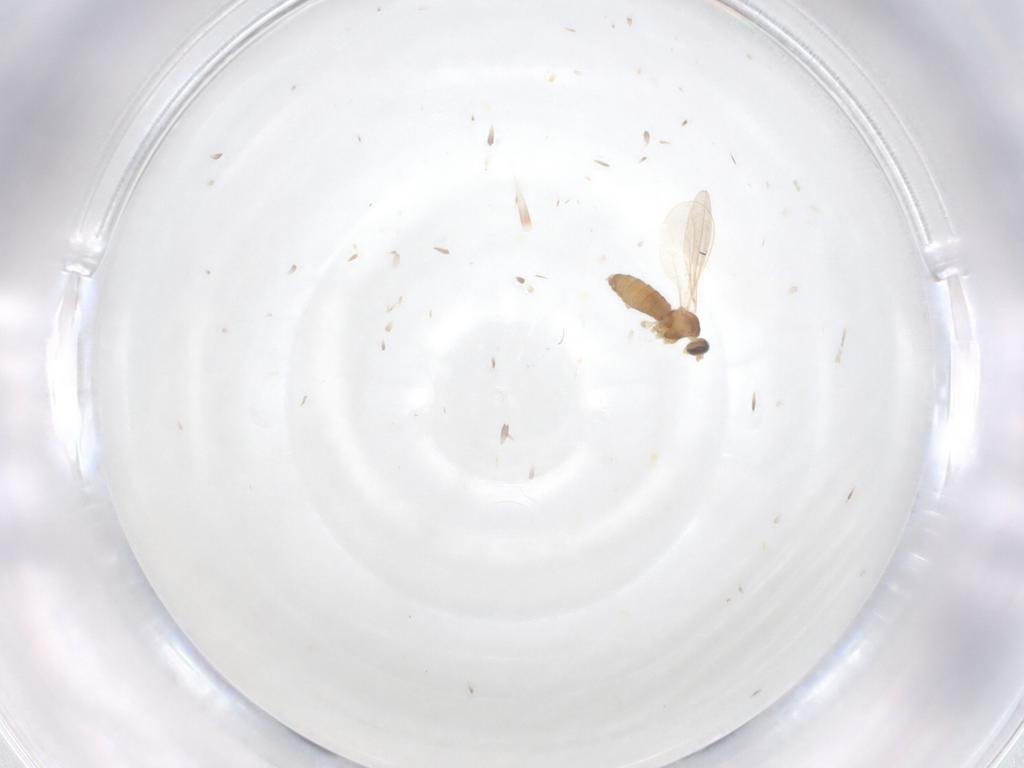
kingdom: Animalia
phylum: Arthropoda
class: Insecta
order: Diptera
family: Cecidomyiidae
